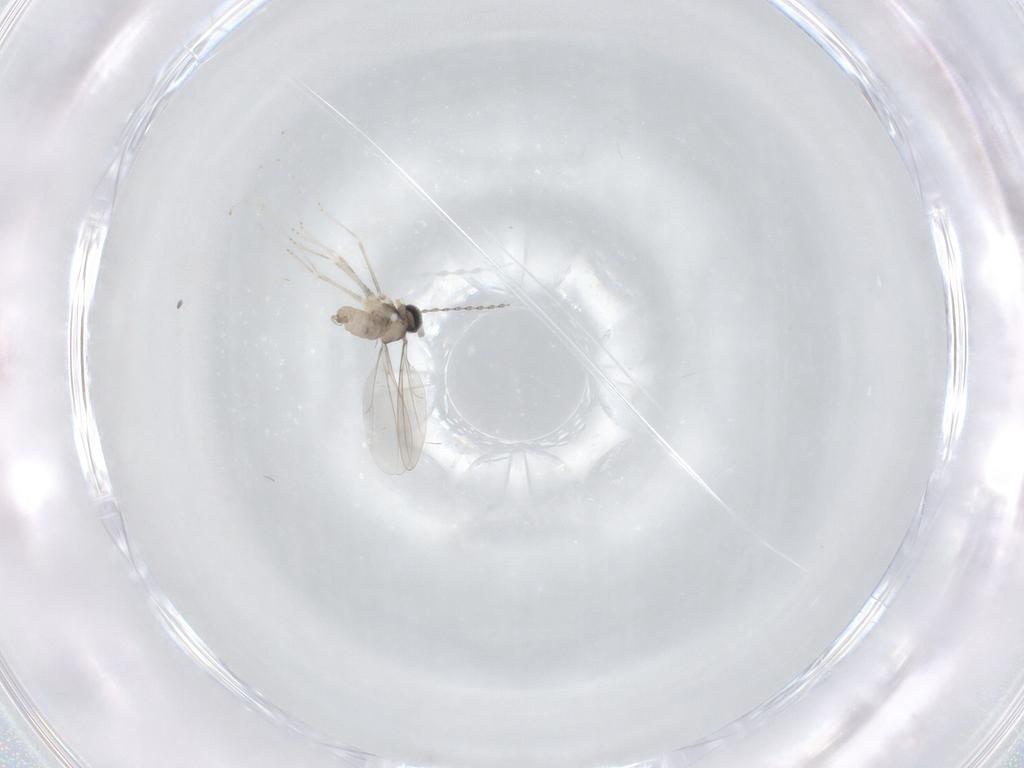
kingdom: Animalia
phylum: Arthropoda
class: Insecta
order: Diptera
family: Cecidomyiidae
